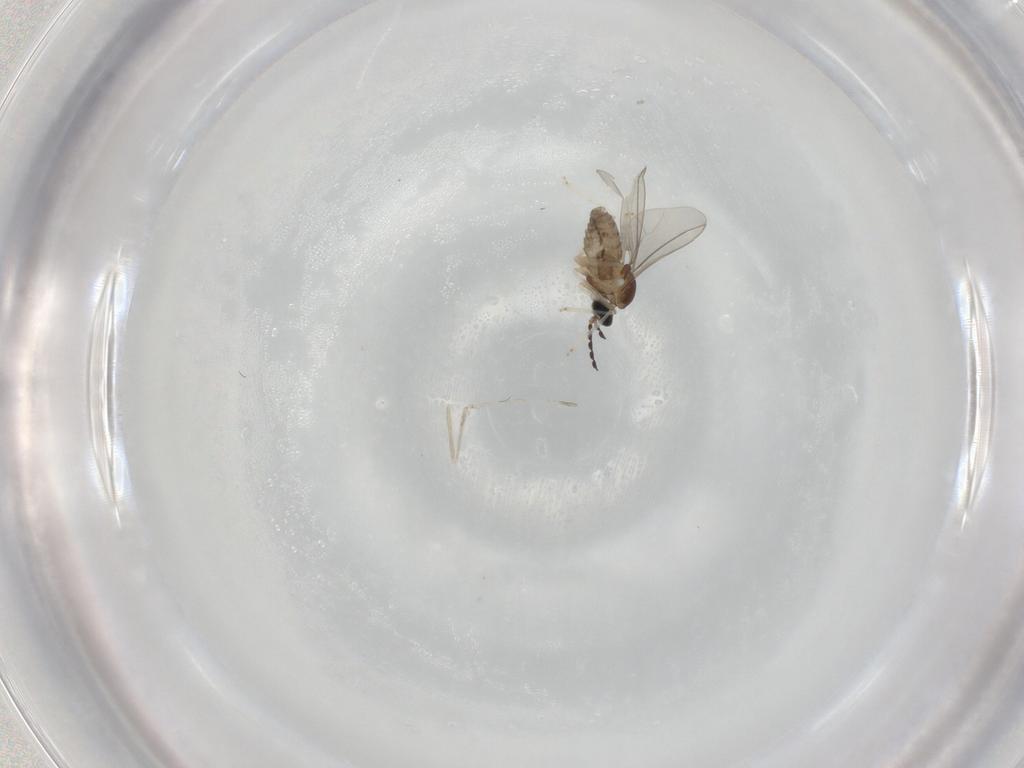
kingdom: Animalia
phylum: Arthropoda
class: Insecta
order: Diptera
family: Cecidomyiidae
